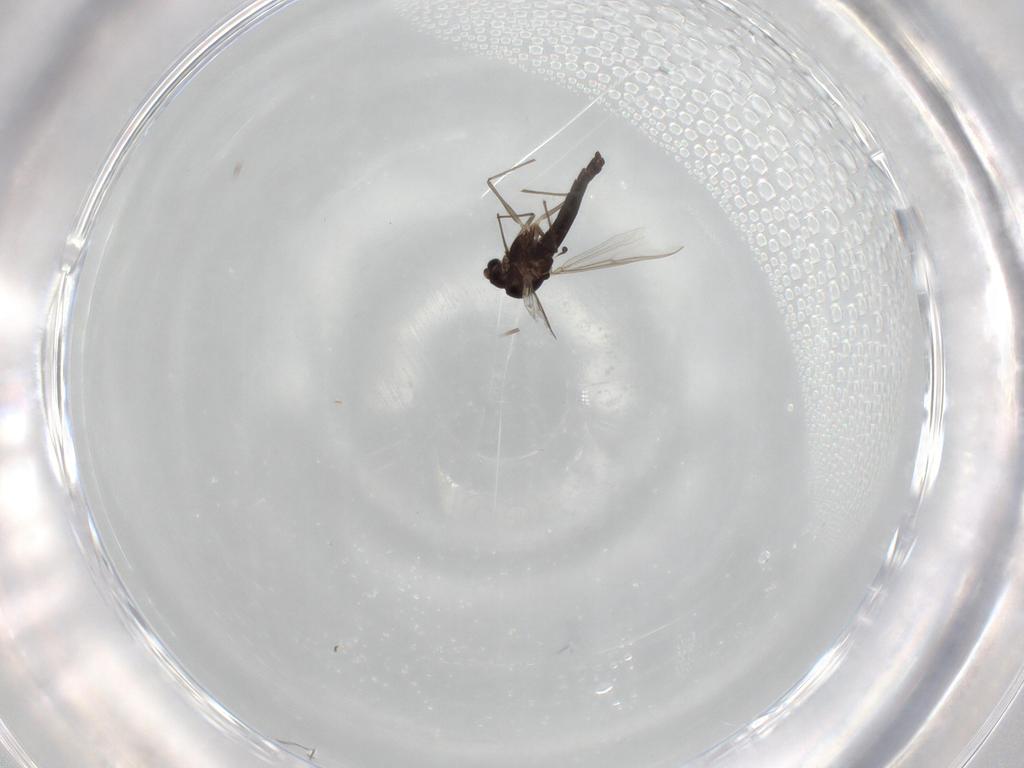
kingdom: Animalia
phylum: Arthropoda
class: Insecta
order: Diptera
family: Chironomidae
